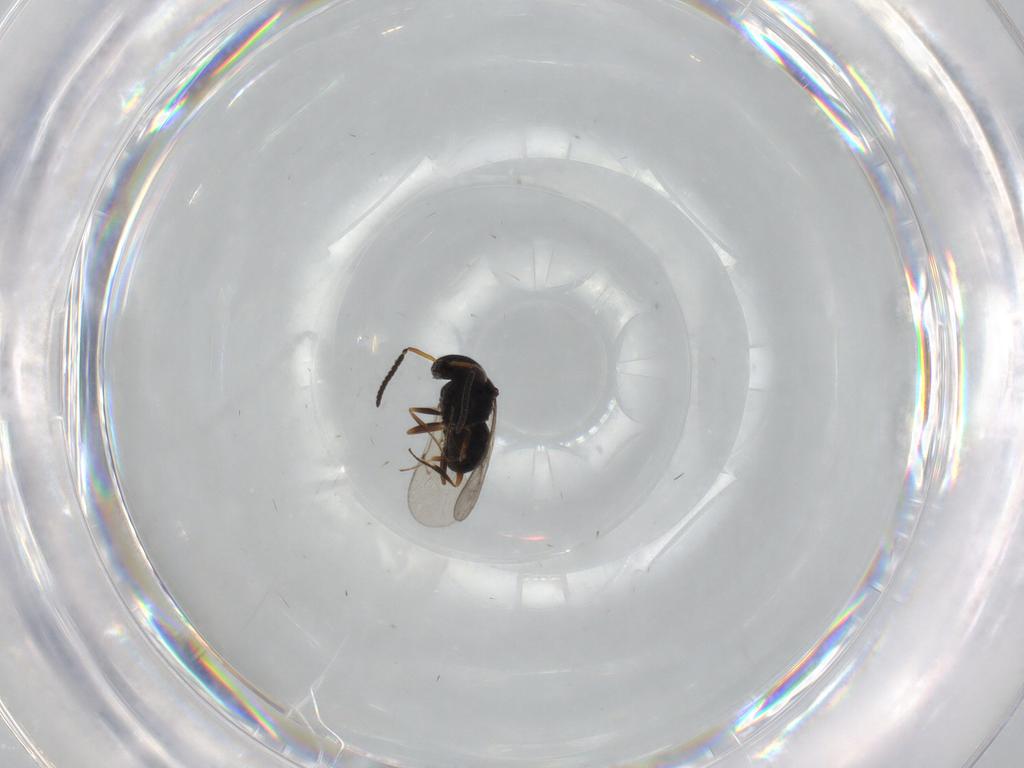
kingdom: Animalia
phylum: Arthropoda
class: Insecta
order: Hymenoptera
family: Scelionidae
